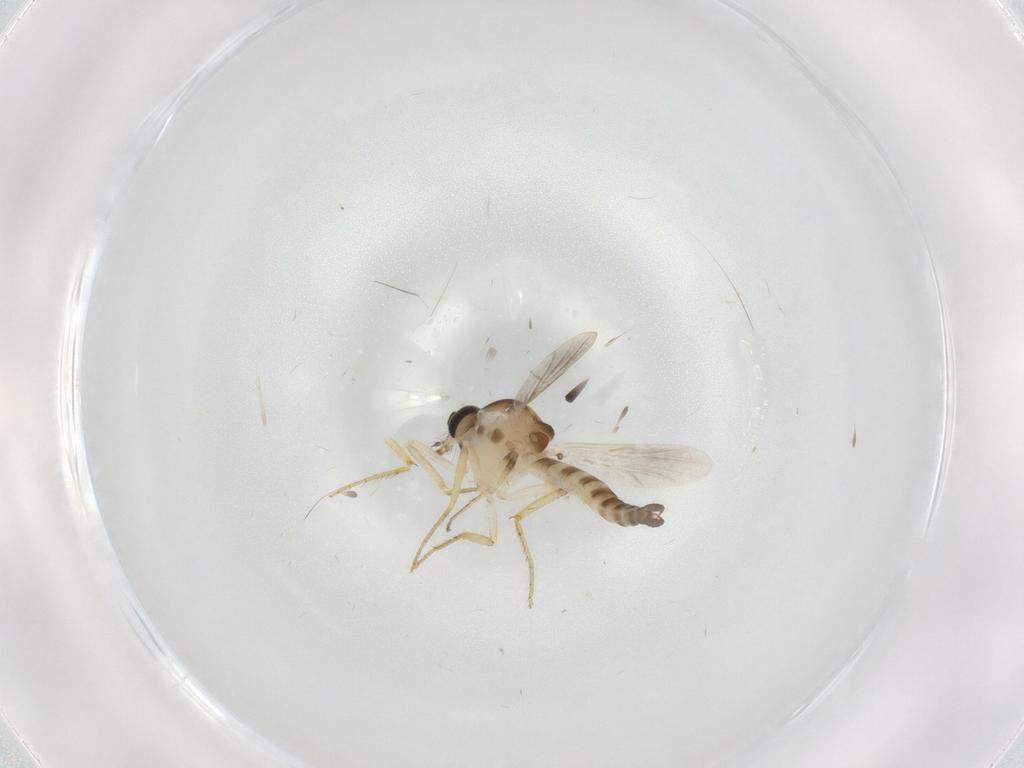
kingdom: Animalia
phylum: Arthropoda
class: Insecta
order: Diptera
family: Ceratopogonidae
